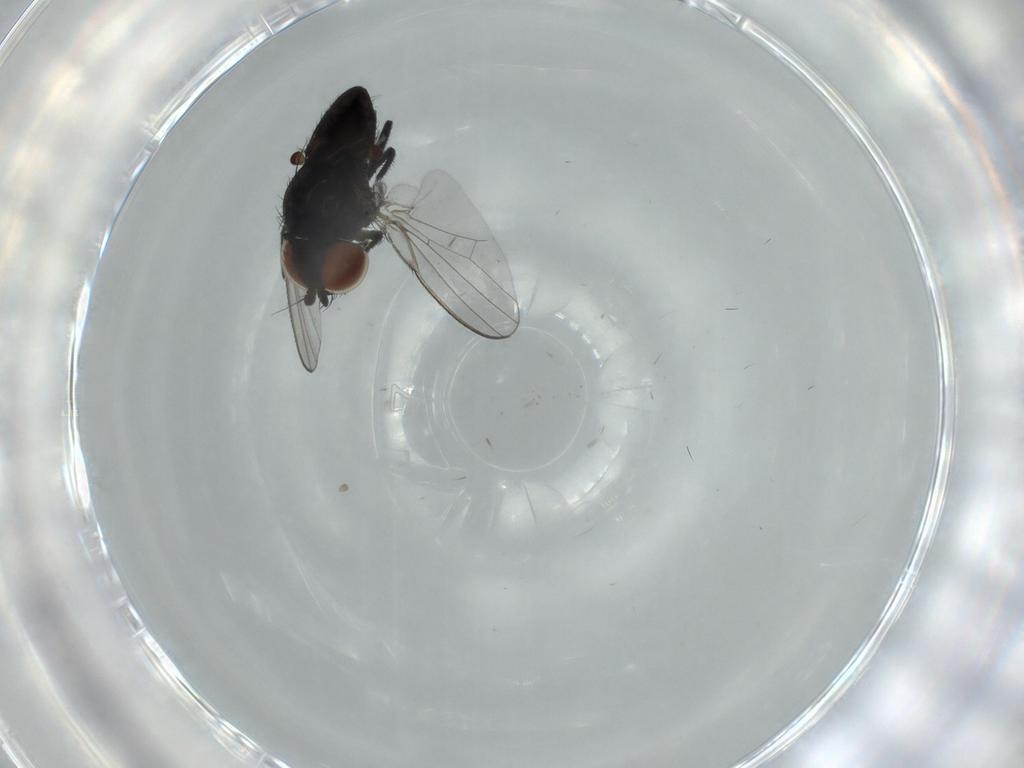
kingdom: Animalia
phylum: Arthropoda
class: Insecta
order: Diptera
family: Milichiidae
